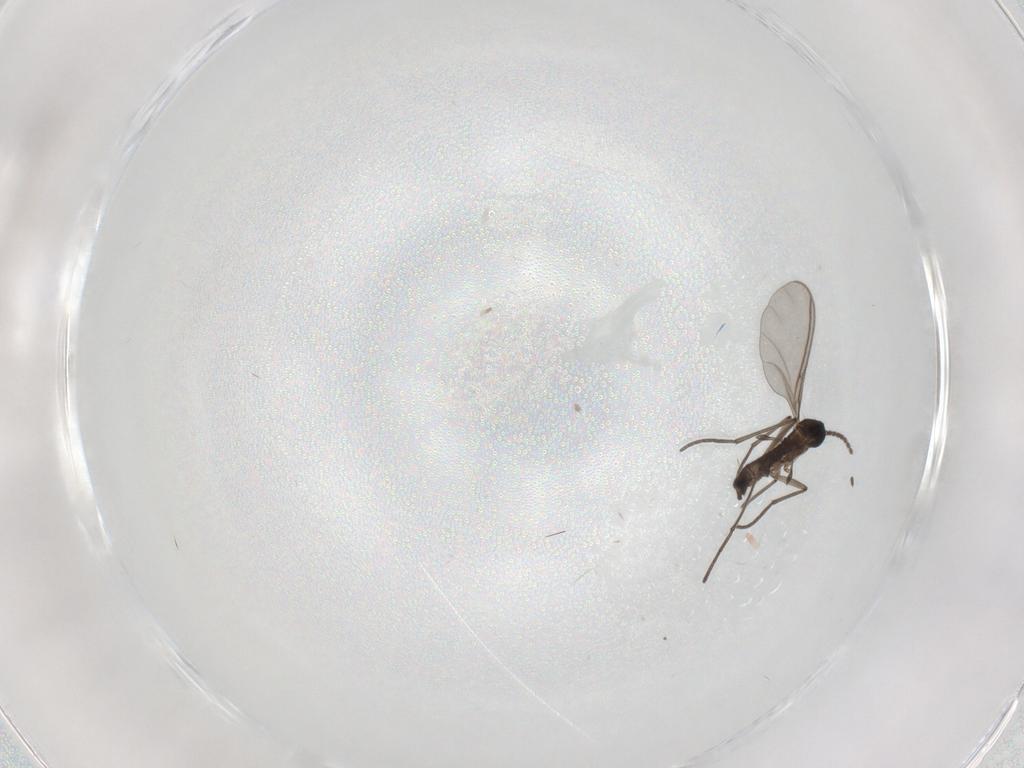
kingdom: Animalia
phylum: Arthropoda
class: Insecta
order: Diptera
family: Sciaridae
